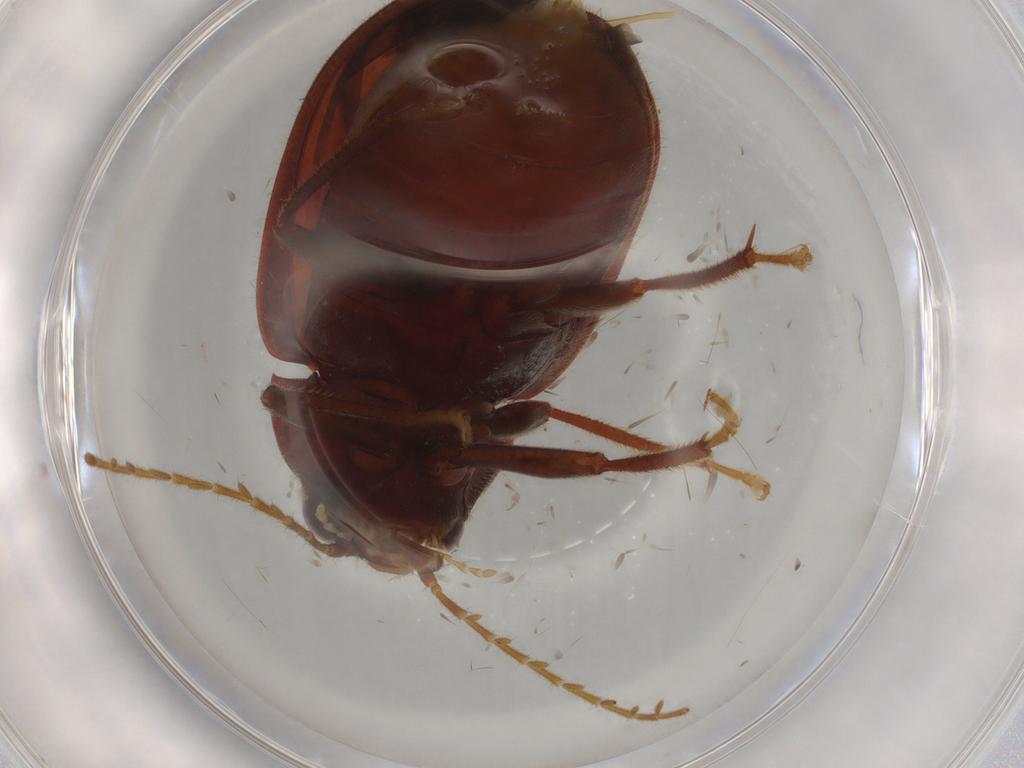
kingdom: Animalia
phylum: Arthropoda
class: Insecta
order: Coleoptera
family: Ptilodactylidae
